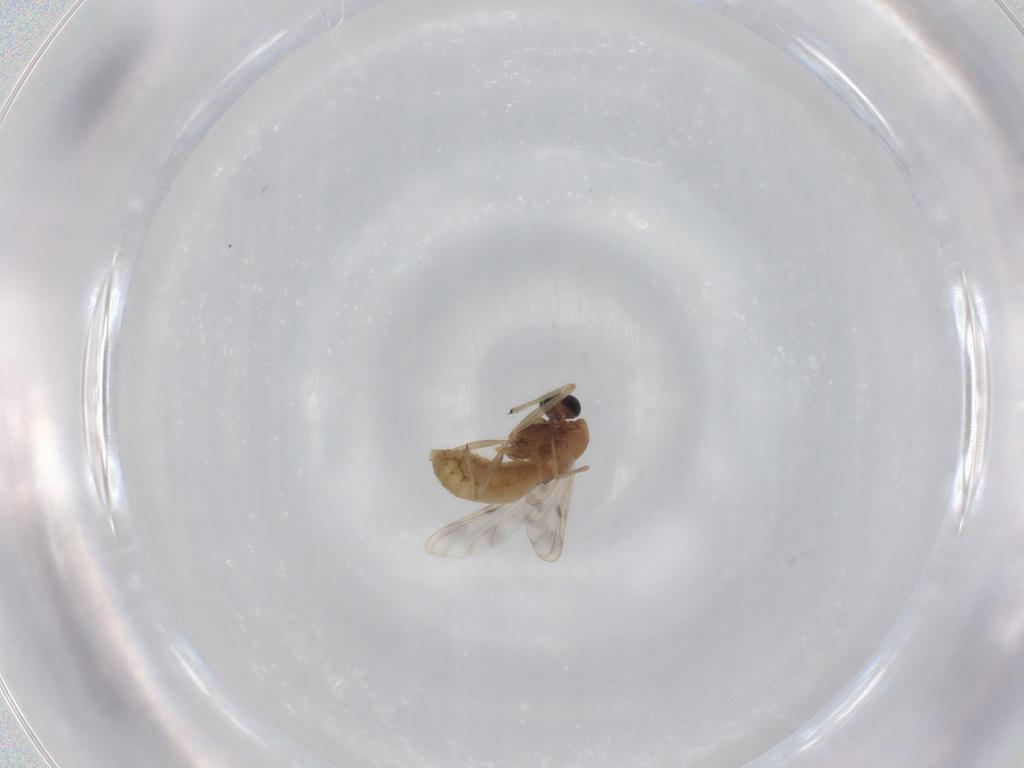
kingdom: Animalia
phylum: Arthropoda
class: Insecta
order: Diptera
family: Chironomidae
